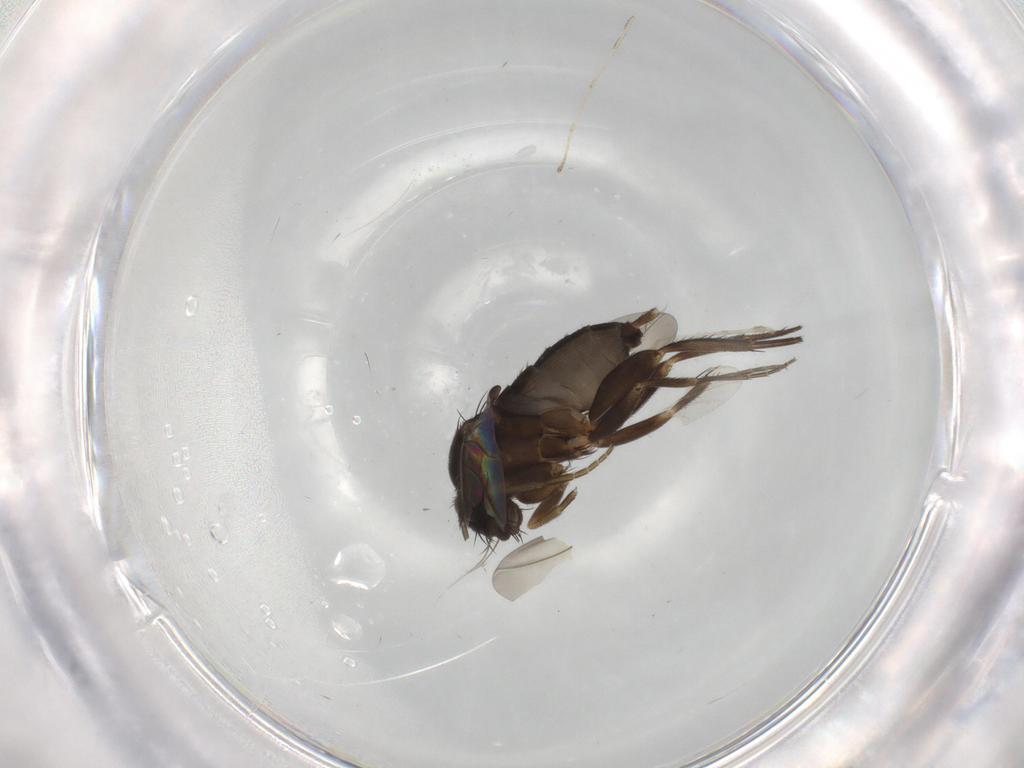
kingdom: Animalia
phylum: Arthropoda
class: Insecta
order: Diptera
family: Phoridae
